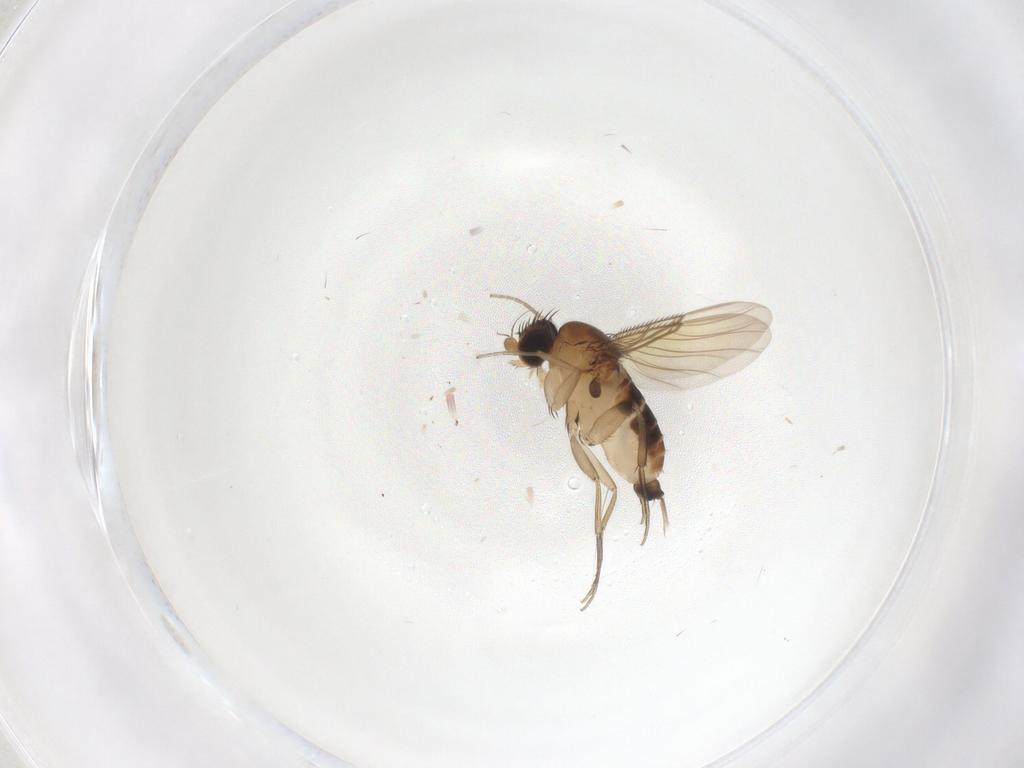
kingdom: Animalia
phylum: Arthropoda
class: Insecta
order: Diptera
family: Phoridae
